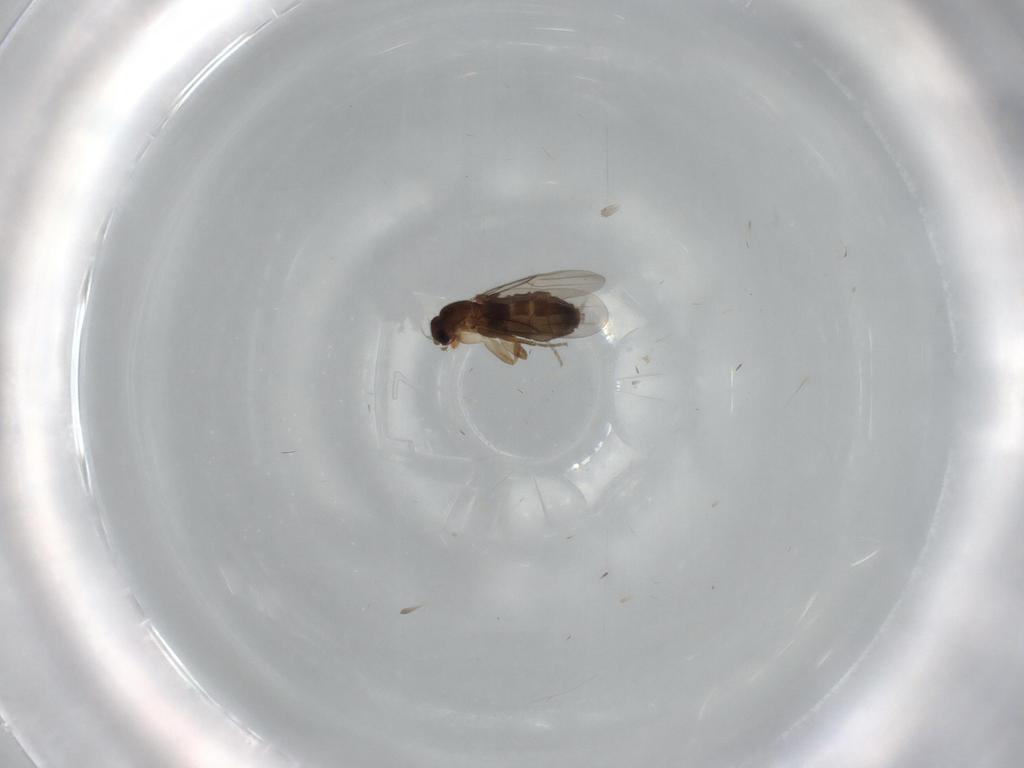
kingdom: Animalia
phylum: Arthropoda
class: Insecta
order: Diptera
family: Phoridae
